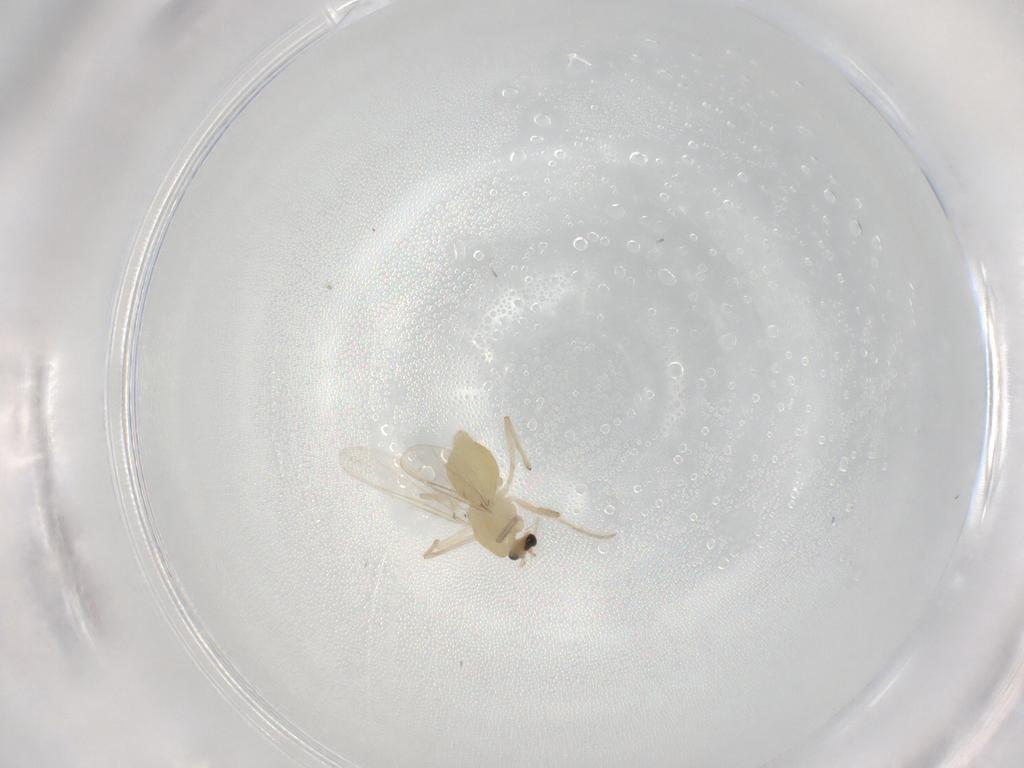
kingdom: Animalia
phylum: Arthropoda
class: Insecta
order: Diptera
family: Chironomidae
